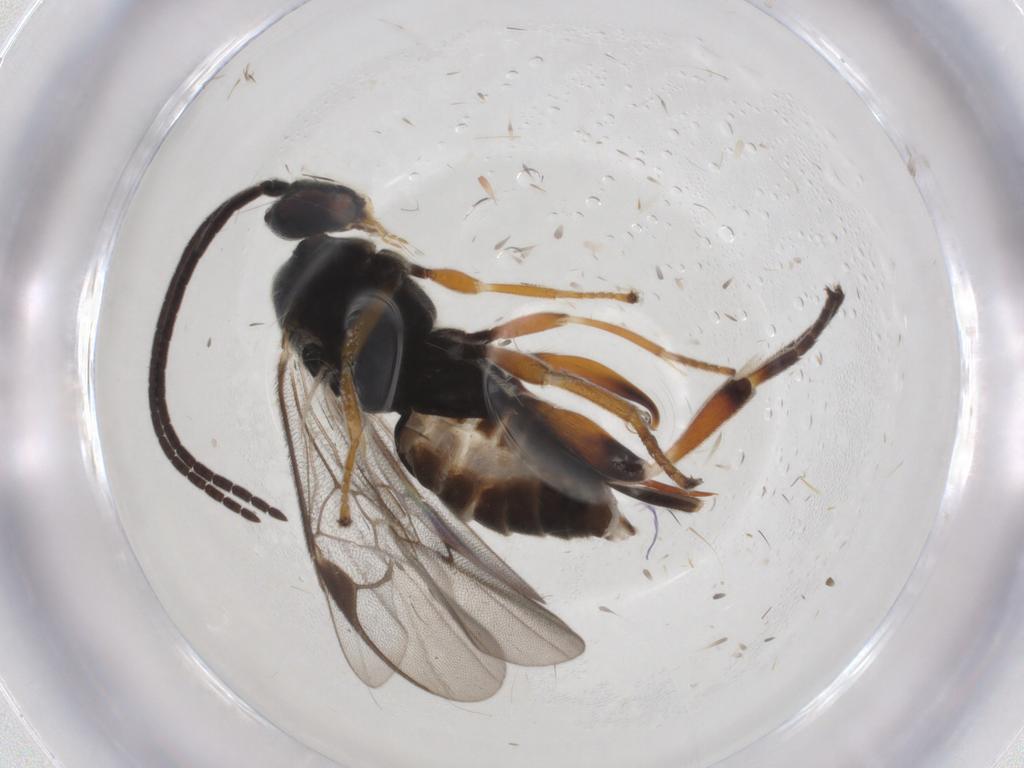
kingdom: Animalia
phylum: Arthropoda
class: Insecta
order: Hymenoptera
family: Braconidae
